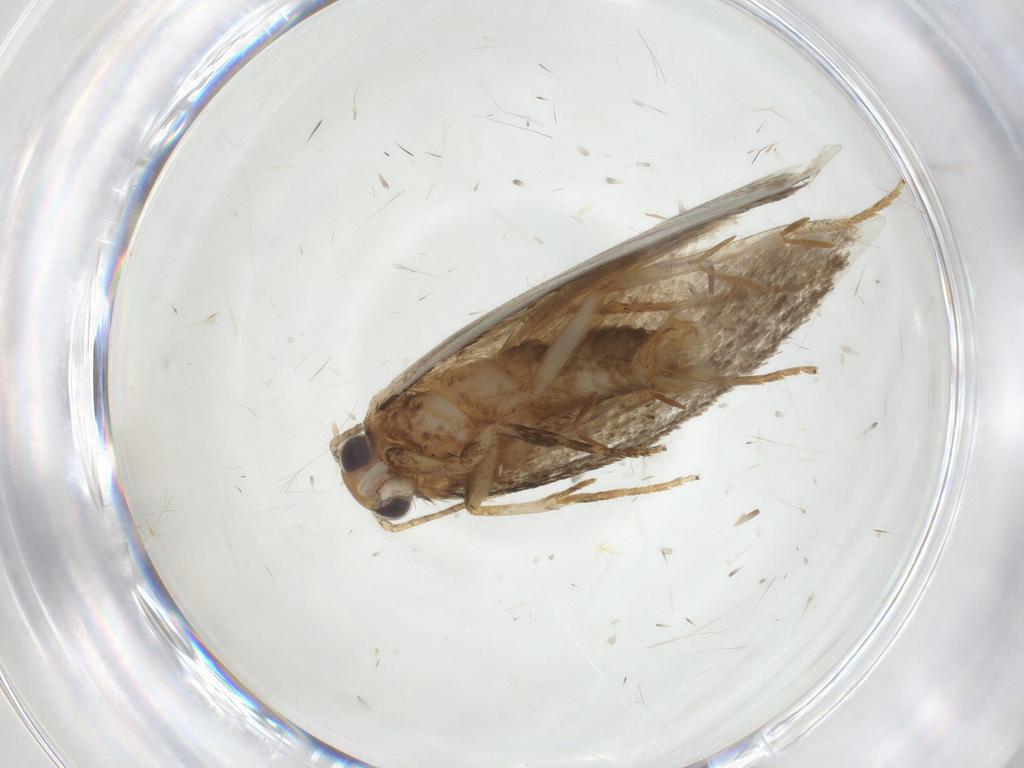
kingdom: Animalia
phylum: Arthropoda
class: Insecta
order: Lepidoptera
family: Oecophoridae
